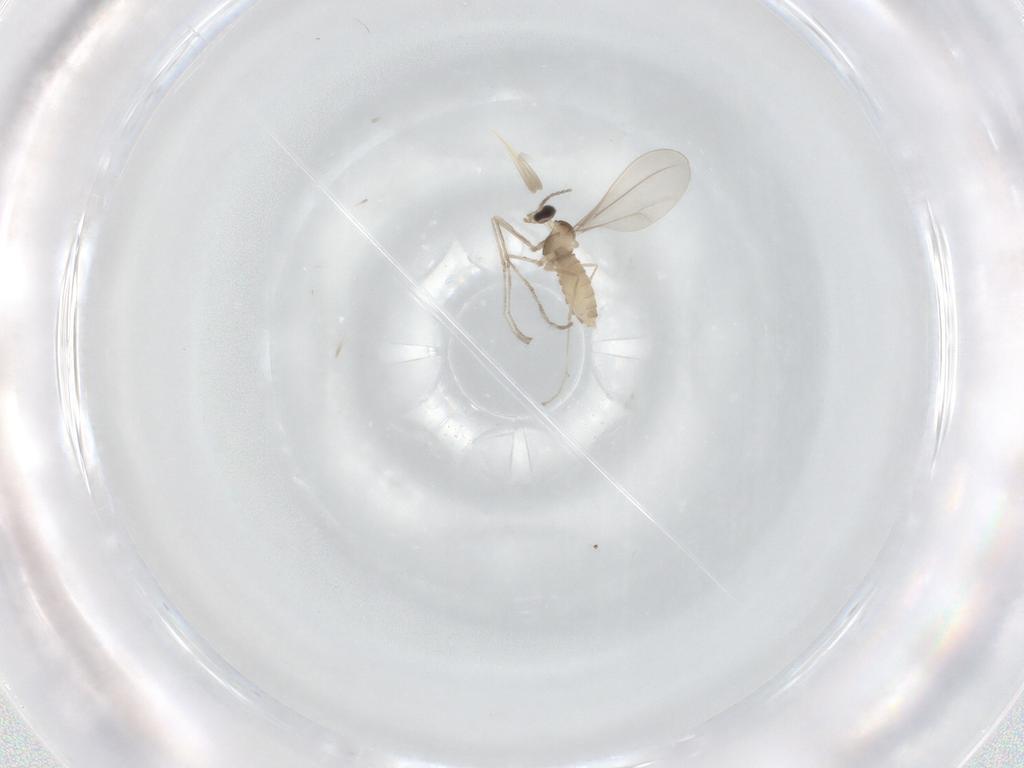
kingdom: Animalia
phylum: Arthropoda
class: Insecta
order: Diptera
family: Cecidomyiidae
